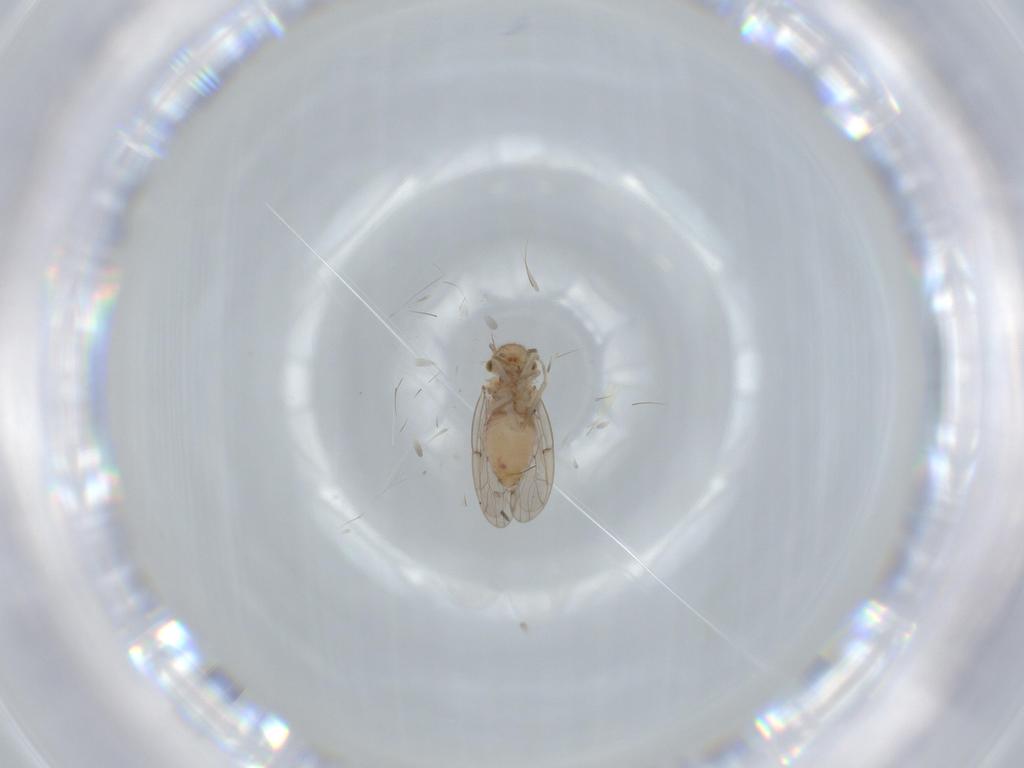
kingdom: Animalia
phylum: Arthropoda
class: Insecta
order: Psocodea
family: Ectopsocidae
